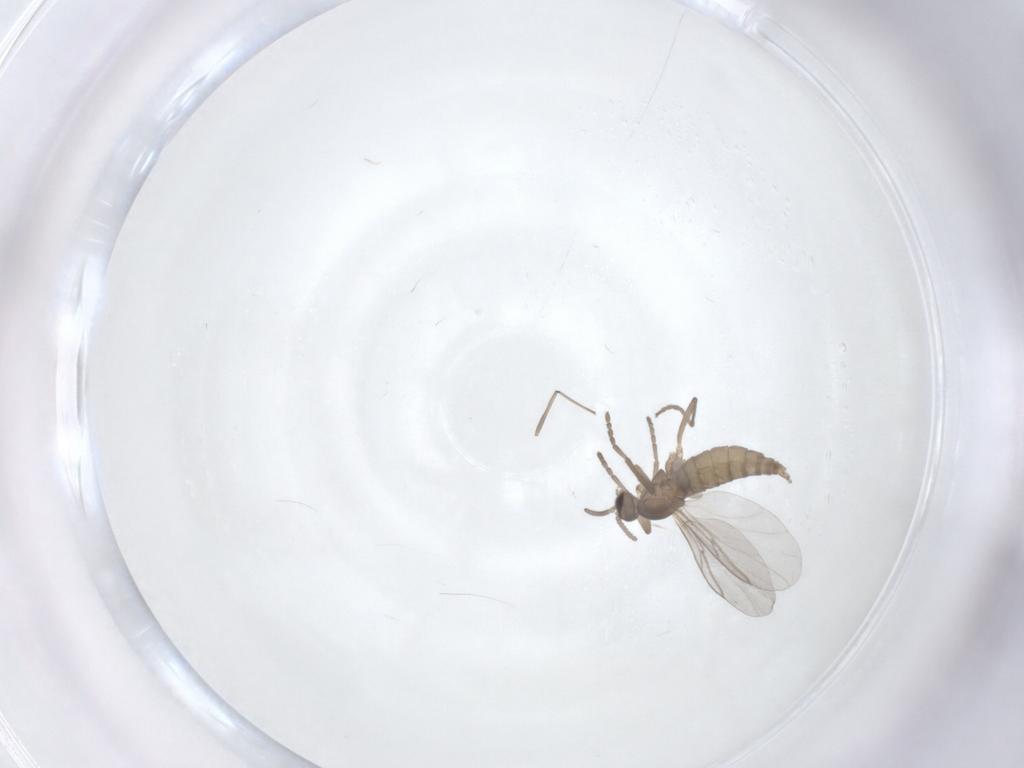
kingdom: Animalia
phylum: Arthropoda
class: Insecta
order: Diptera
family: Cecidomyiidae
